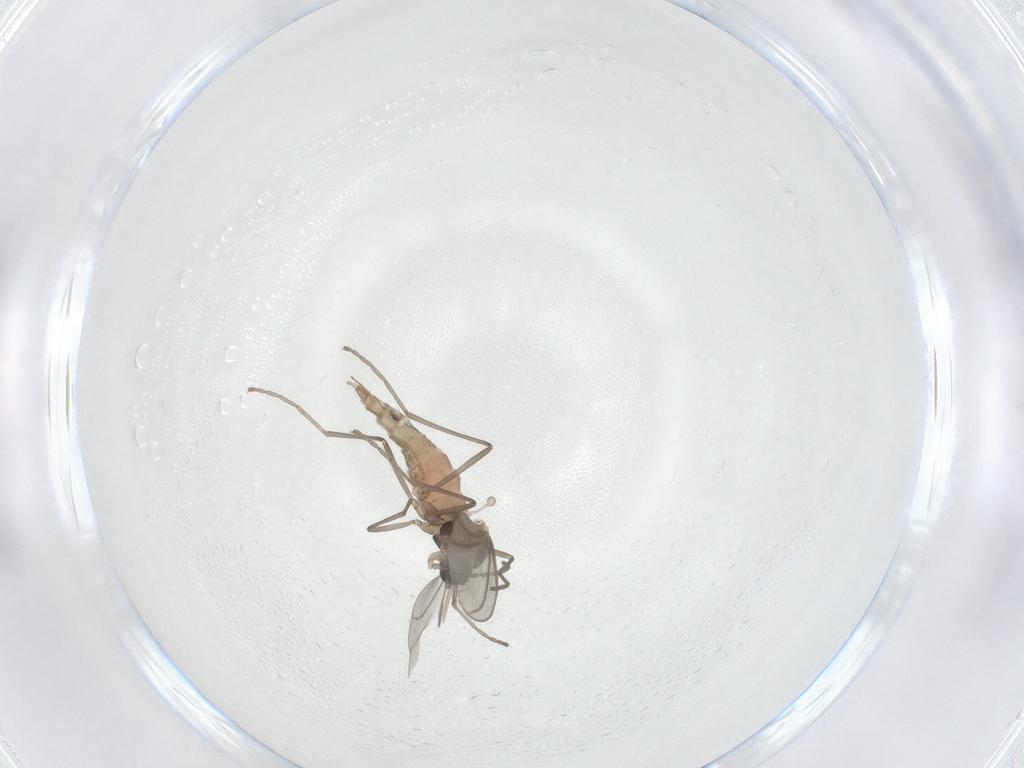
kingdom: Animalia
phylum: Arthropoda
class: Insecta
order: Diptera
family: Cecidomyiidae
